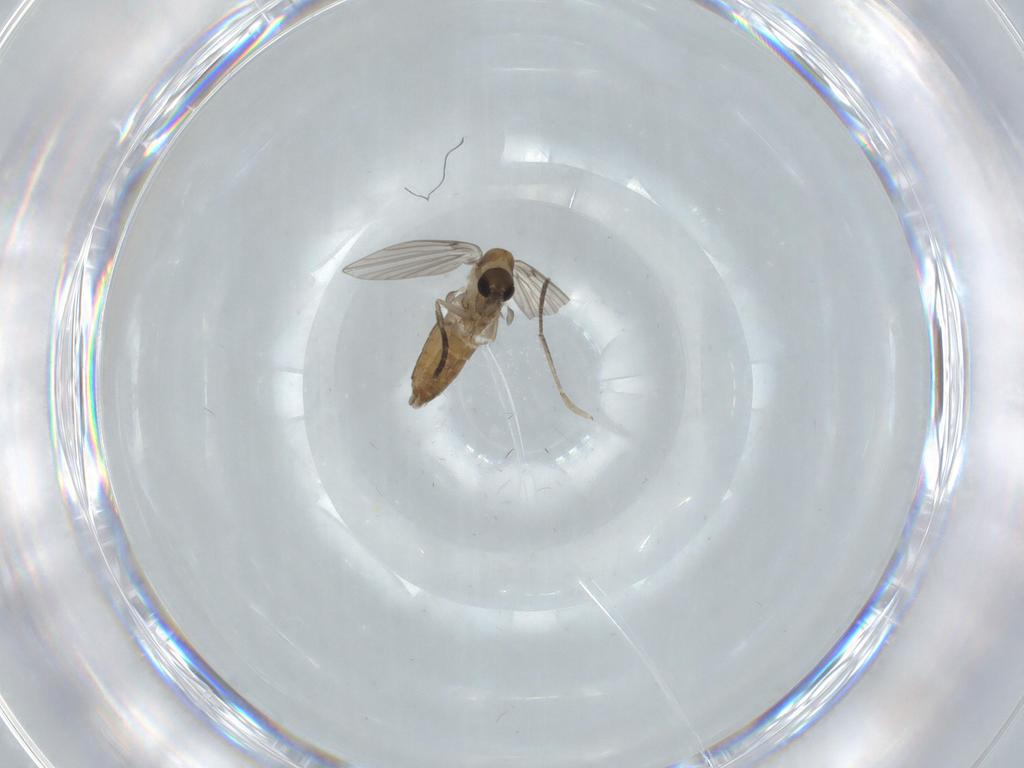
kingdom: Animalia
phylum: Arthropoda
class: Insecta
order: Diptera
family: Psychodidae
